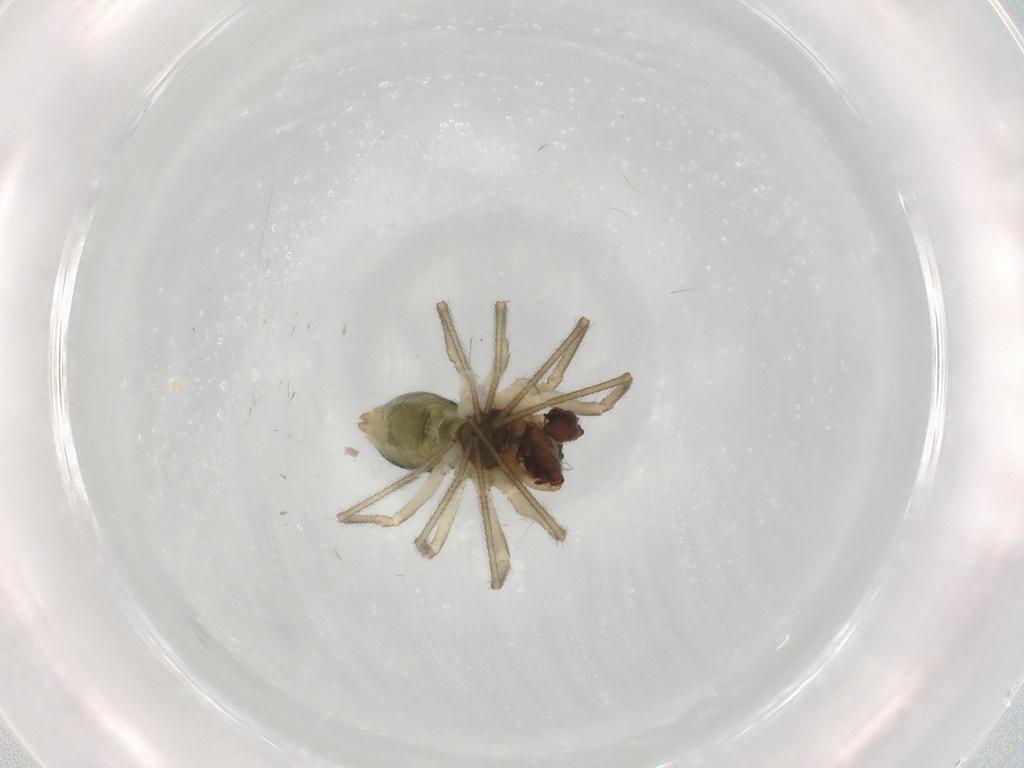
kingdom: Animalia
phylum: Arthropoda
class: Arachnida
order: Araneae
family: Linyphiidae
